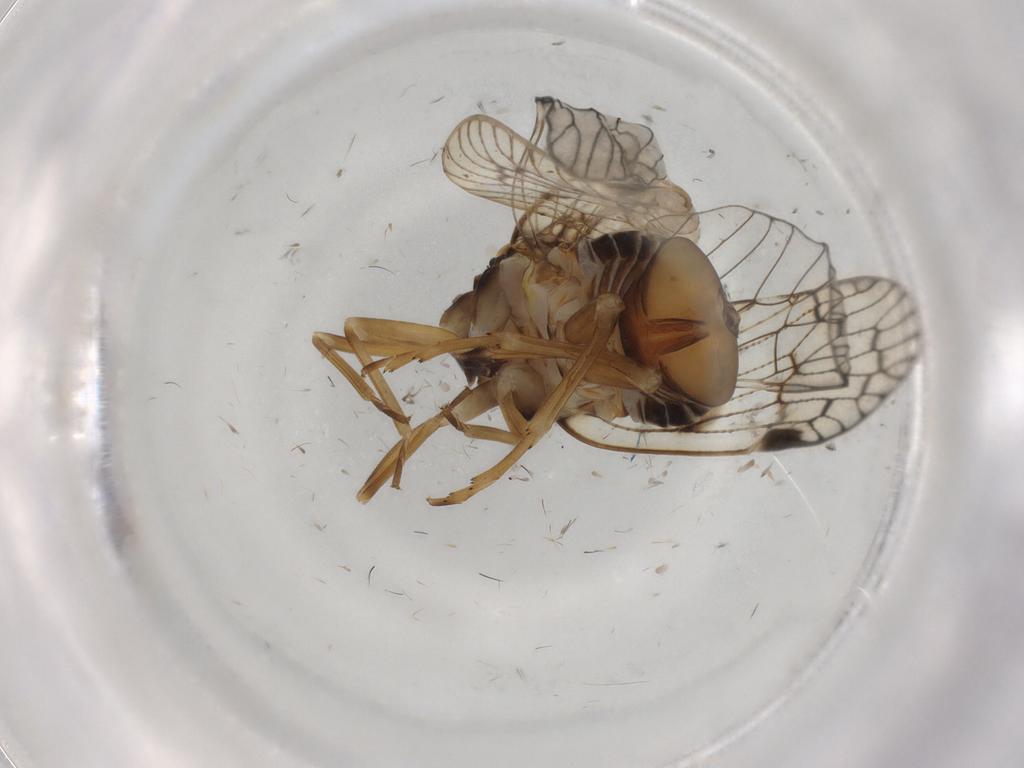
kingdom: Animalia
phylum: Arthropoda
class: Insecta
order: Hemiptera
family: Cixiidae
